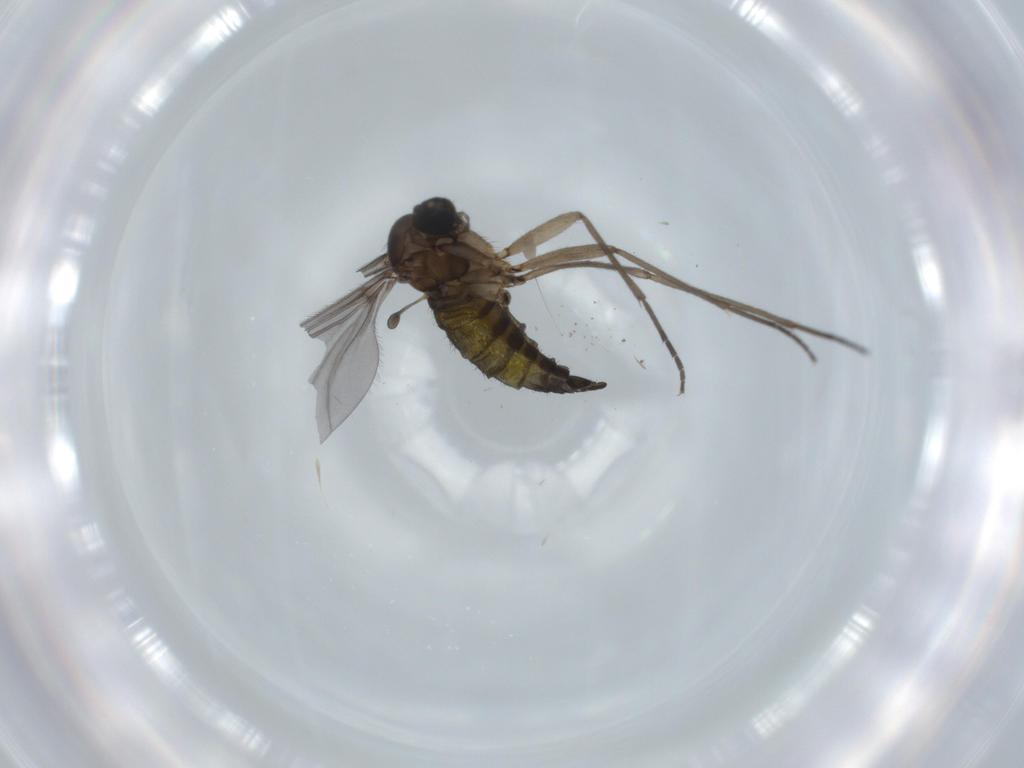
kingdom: Animalia
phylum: Arthropoda
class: Insecta
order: Diptera
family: Sciaridae
